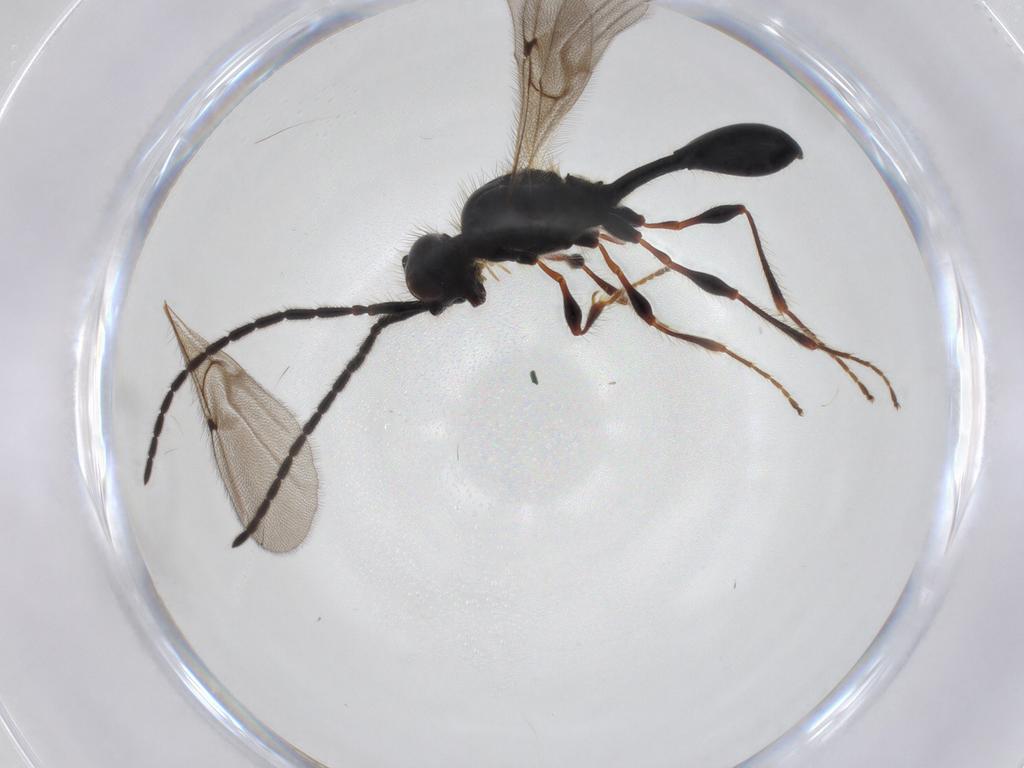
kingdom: Animalia
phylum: Arthropoda
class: Insecta
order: Hymenoptera
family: Diapriidae
